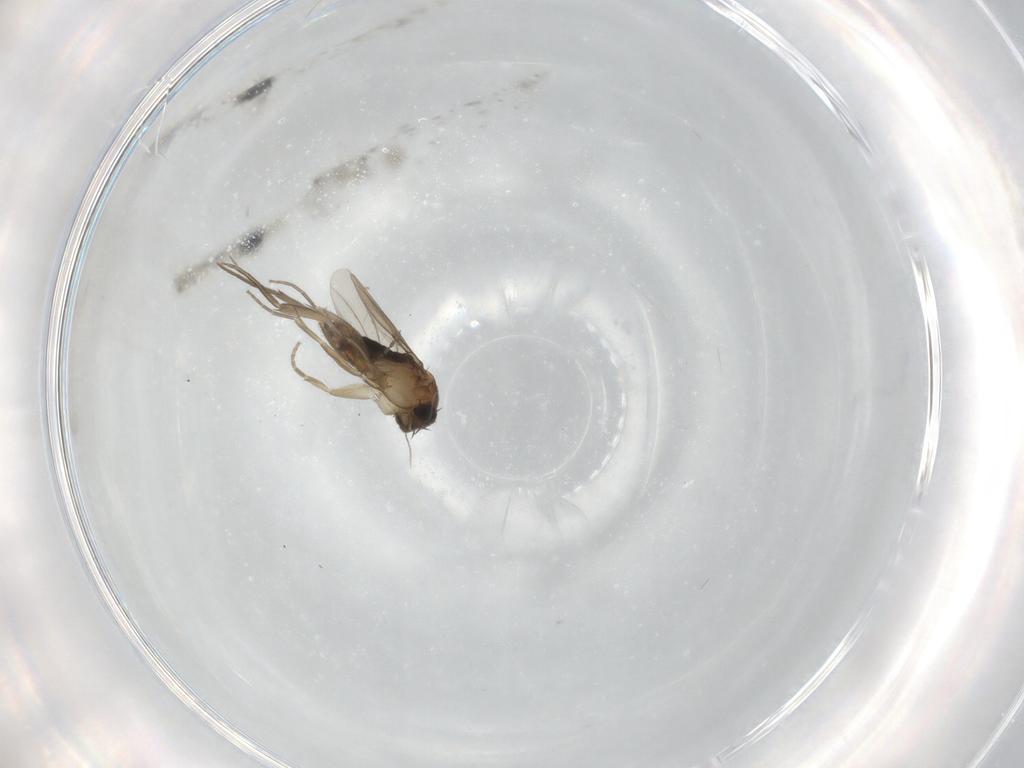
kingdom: Animalia
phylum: Arthropoda
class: Insecta
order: Diptera
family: Phoridae
